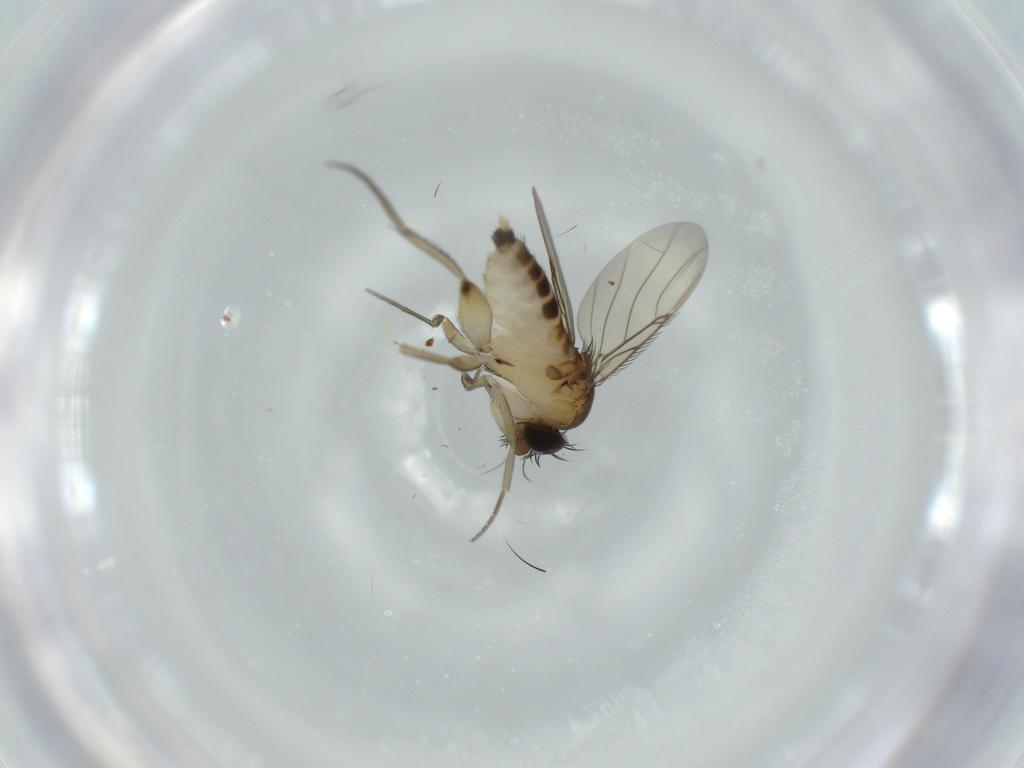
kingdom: Animalia
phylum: Arthropoda
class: Insecta
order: Diptera
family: Phoridae
